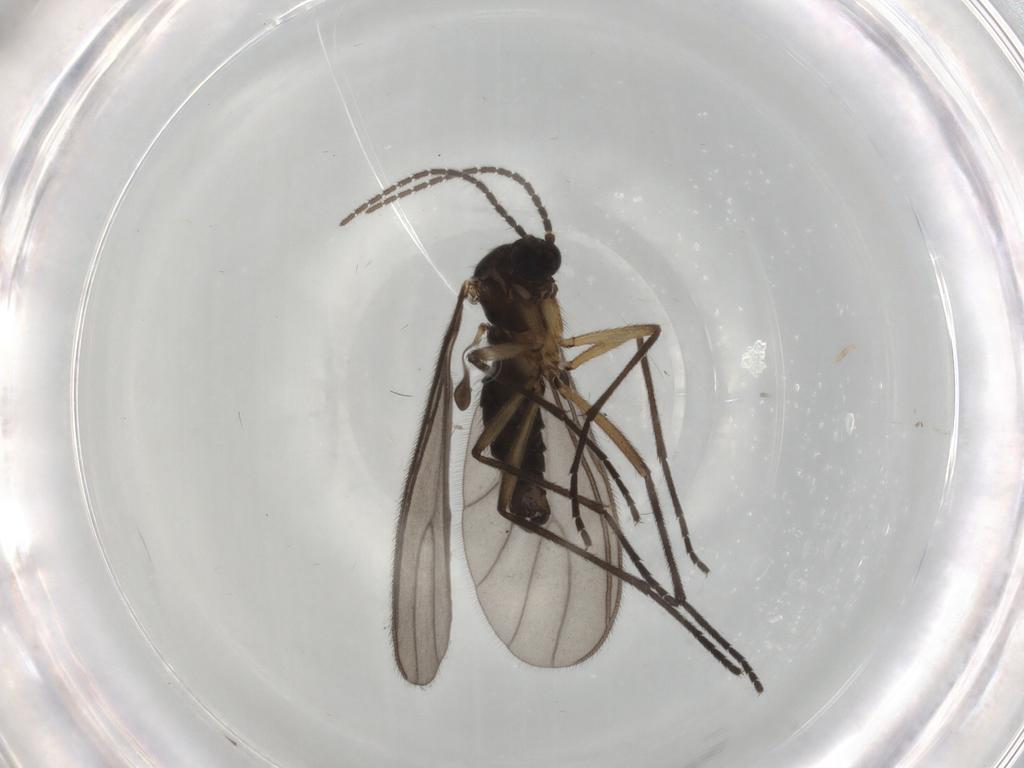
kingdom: Animalia
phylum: Arthropoda
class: Insecta
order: Diptera
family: Sciaridae
